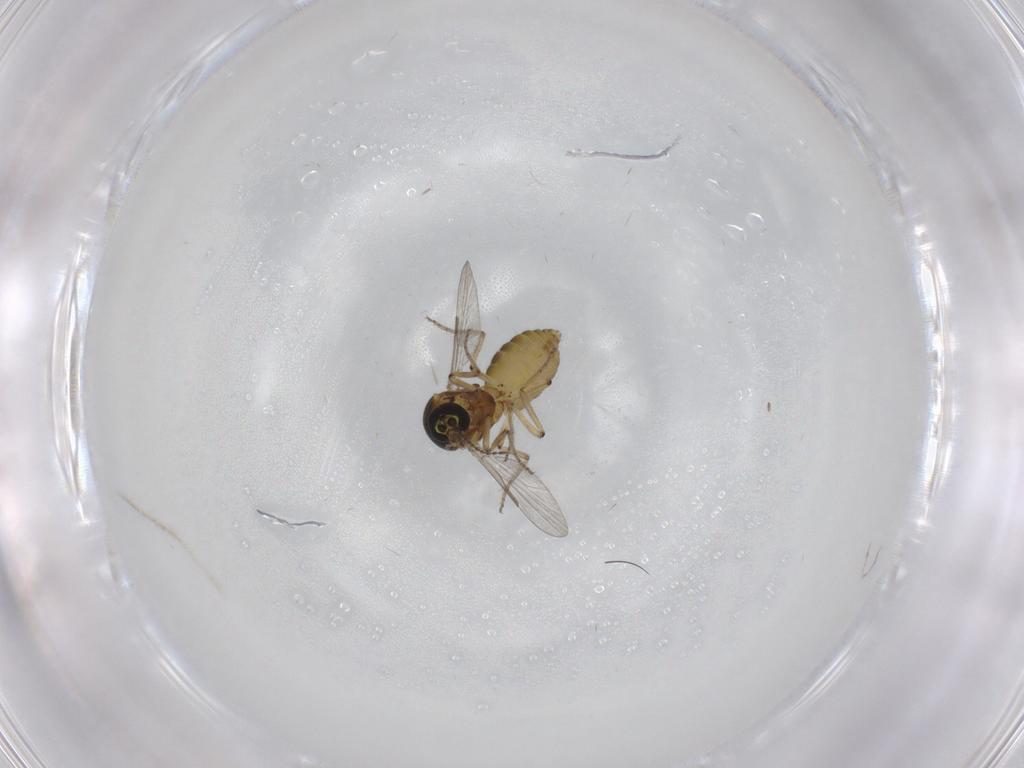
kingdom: Animalia
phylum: Arthropoda
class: Insecta
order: Diptera
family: Ceratopogonidae
